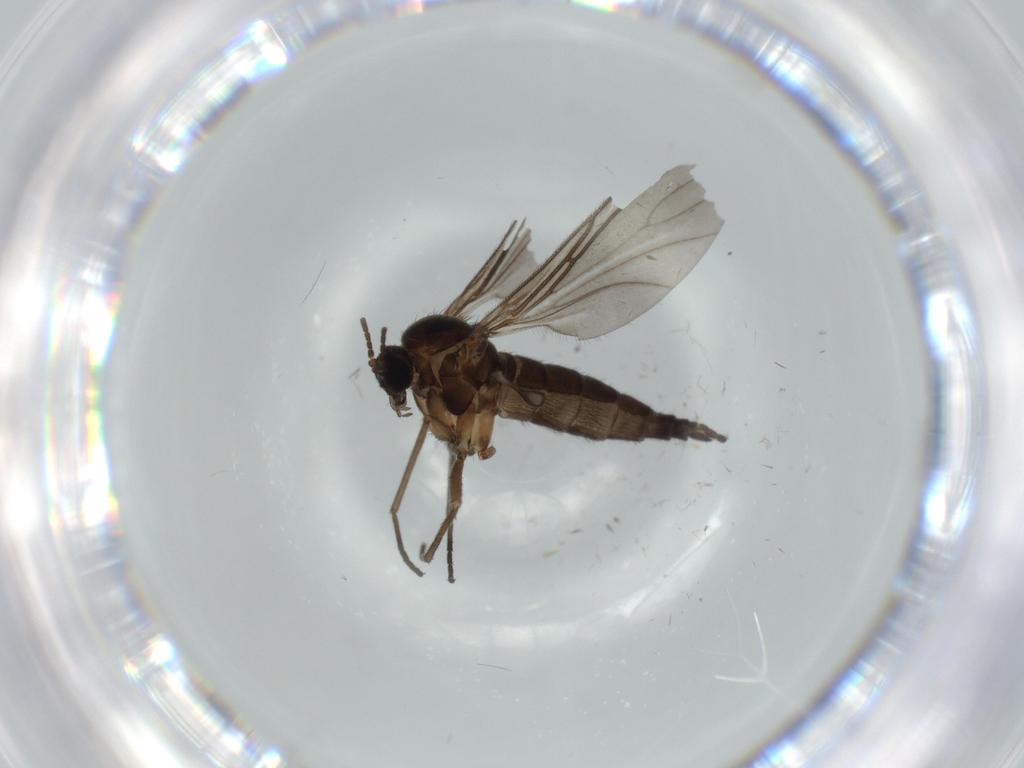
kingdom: Animalia
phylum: Arthropoda
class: Insecta
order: Diptera
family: Sciaridae
